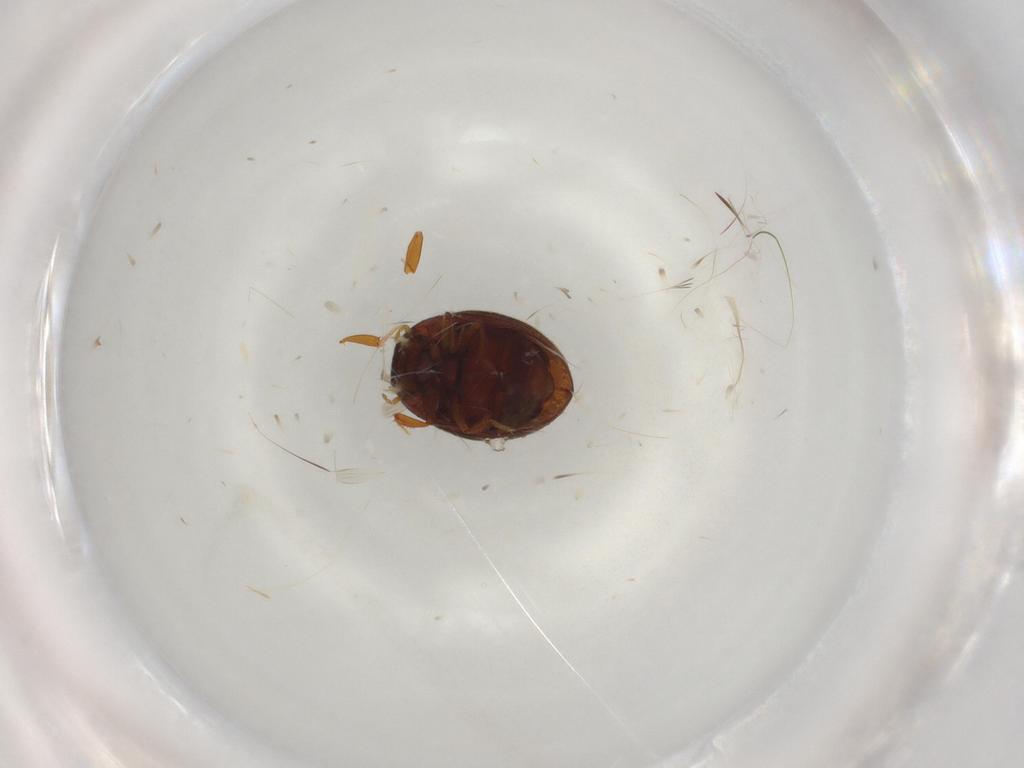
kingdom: Animalia
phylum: Arthropoda
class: Insecta
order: Coleoptera
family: Hydrophilidae
